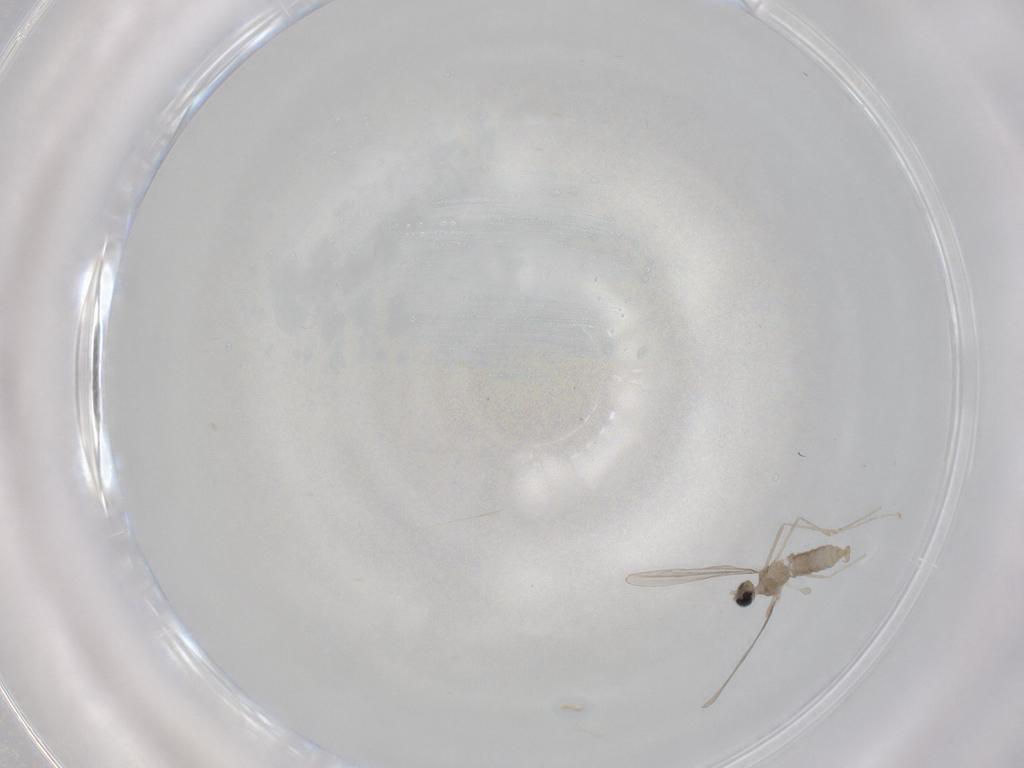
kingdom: Animalia
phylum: Arthropoda
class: Insecta
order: Diptera
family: Cecidomyiidae
